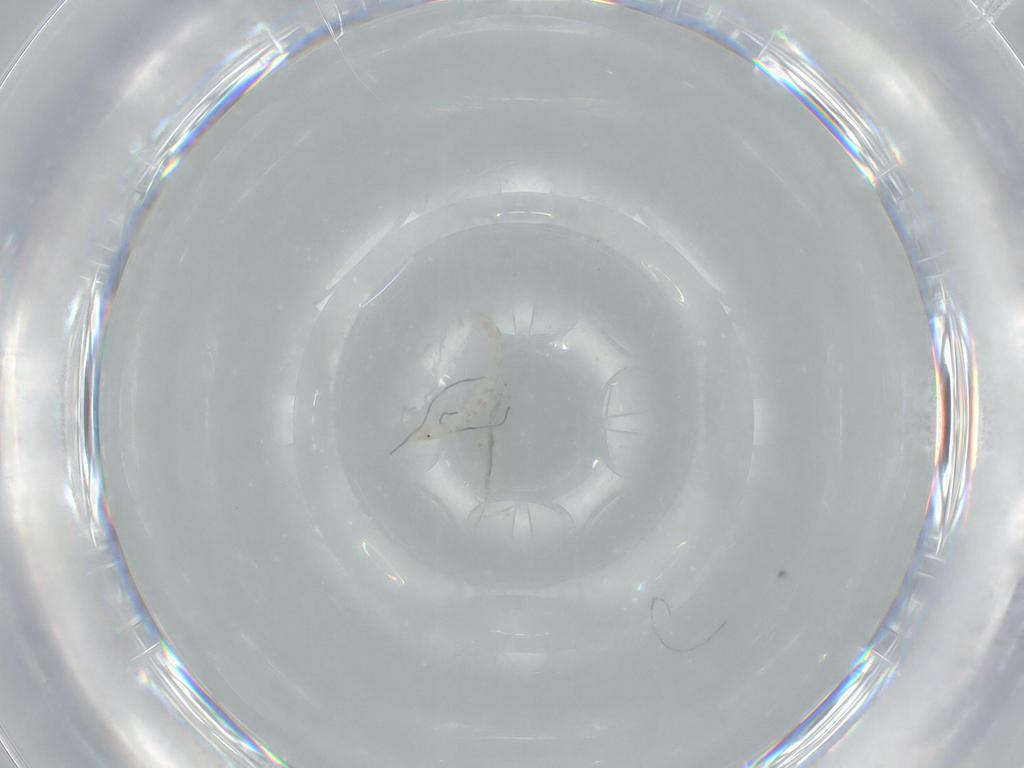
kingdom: Animalia
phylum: Arthropoda
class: Insecta
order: Diptera
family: Chironomidae
